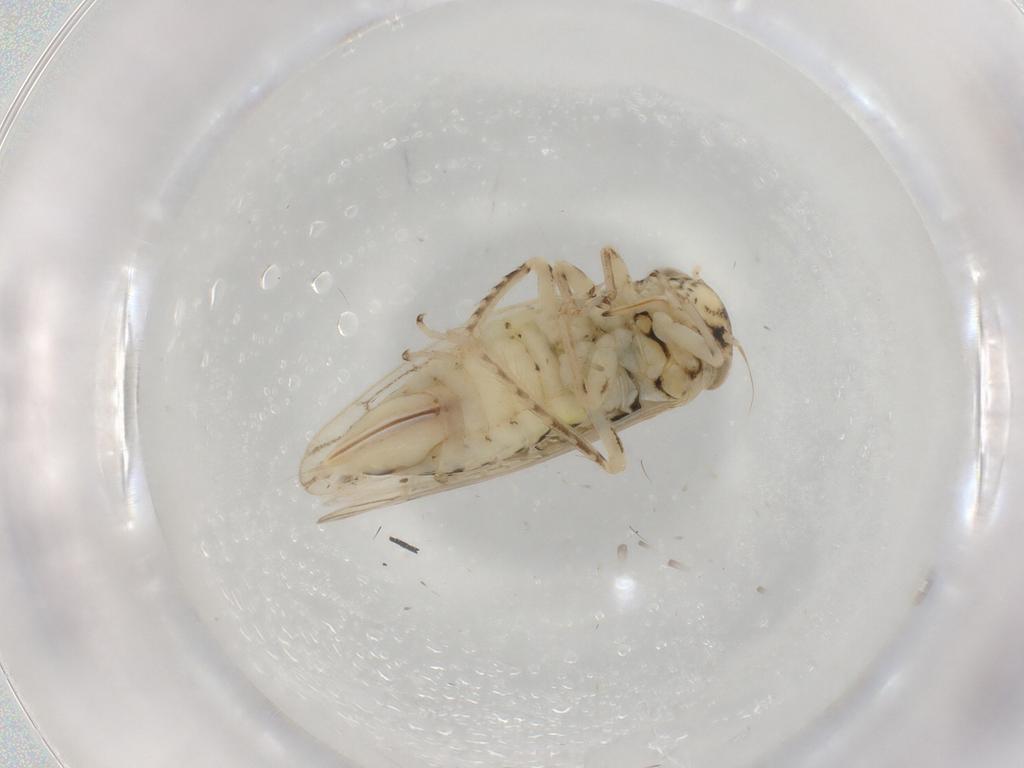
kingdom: Animalia
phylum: Arthropoda
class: Insecta
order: Hemiptera
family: Cicadellidae
